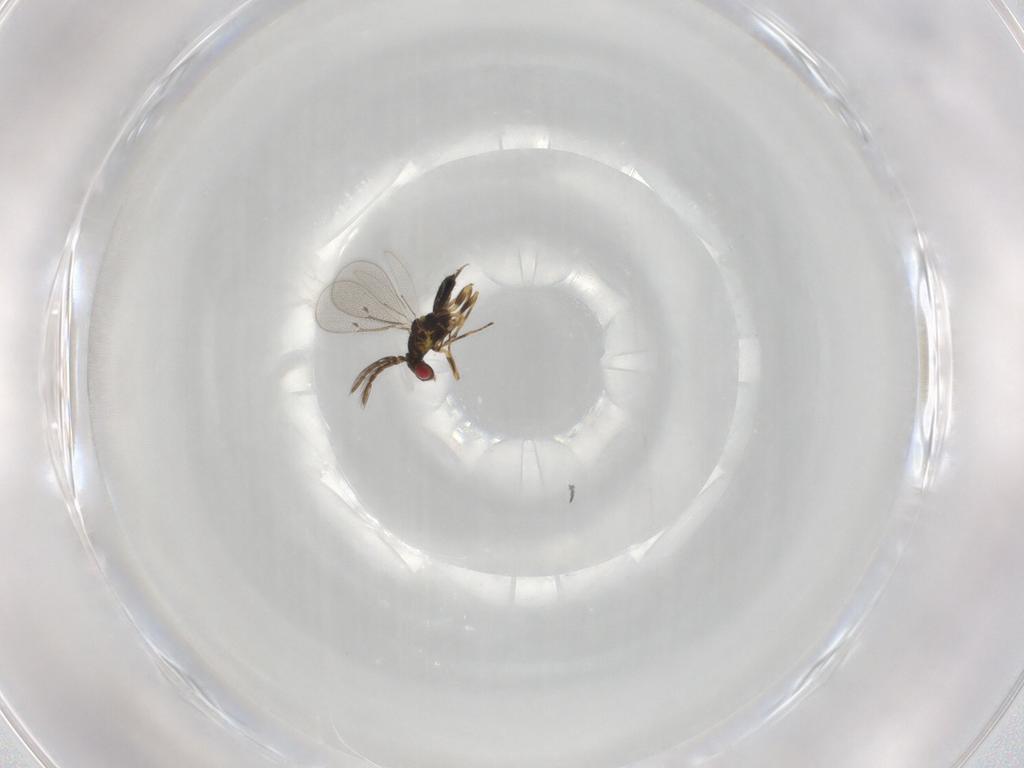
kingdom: Animalia
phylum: Arthropoda
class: Insecta
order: Hymenoptera
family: Eulophidae
